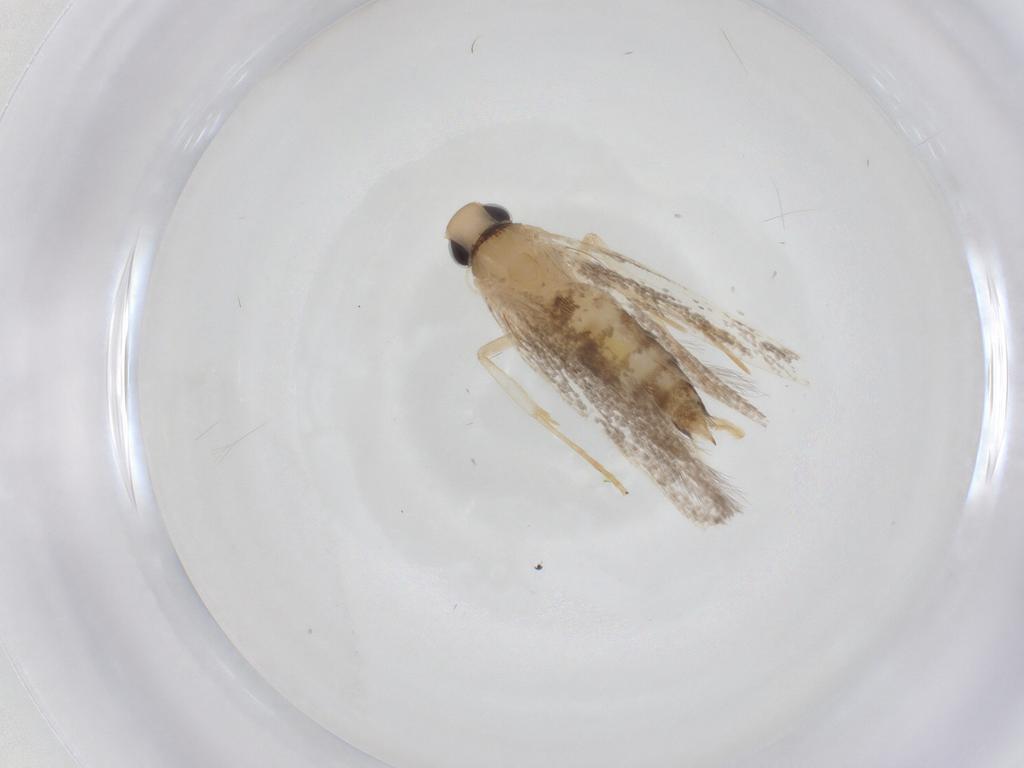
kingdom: Animalia
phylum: Arthropoda
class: Insecta
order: Lepidoptera
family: Cosmopterigidae
